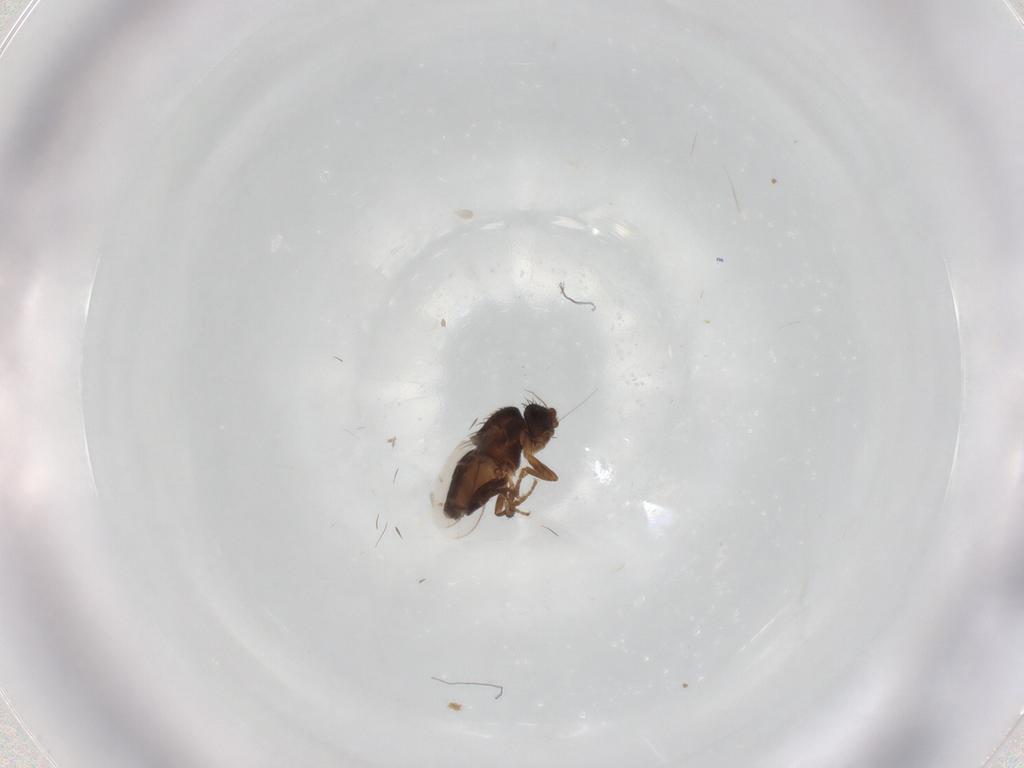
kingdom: Animalia
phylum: Arthropoda
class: Insecta
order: Diptera
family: Sphaeroceridae
